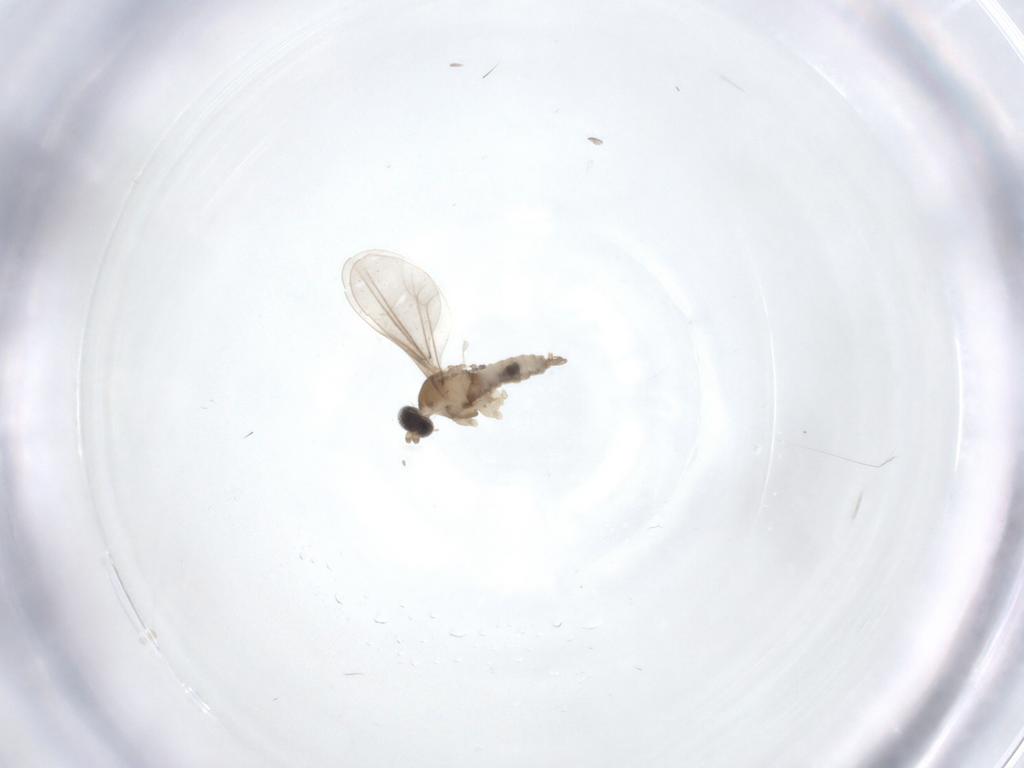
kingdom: Animalia
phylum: Arthropoda
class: Insecta
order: Diptera
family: Cecidomyiidae
